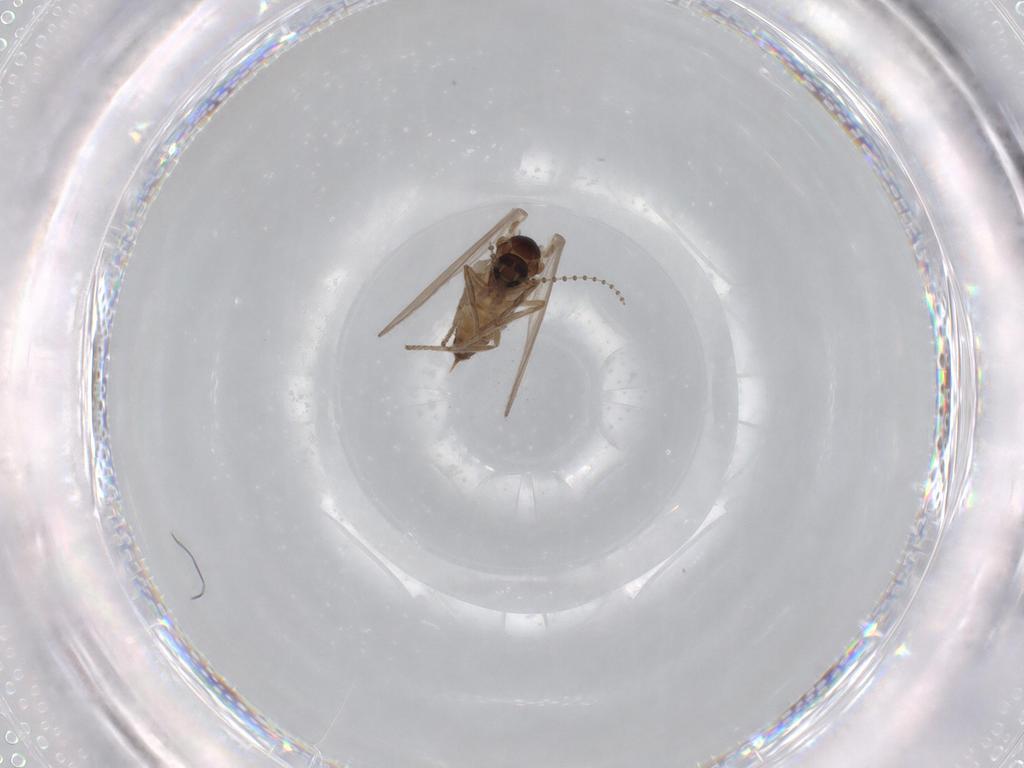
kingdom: Animalia
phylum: Arthropoda
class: Insecta
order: Diptera
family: Psychodidae
